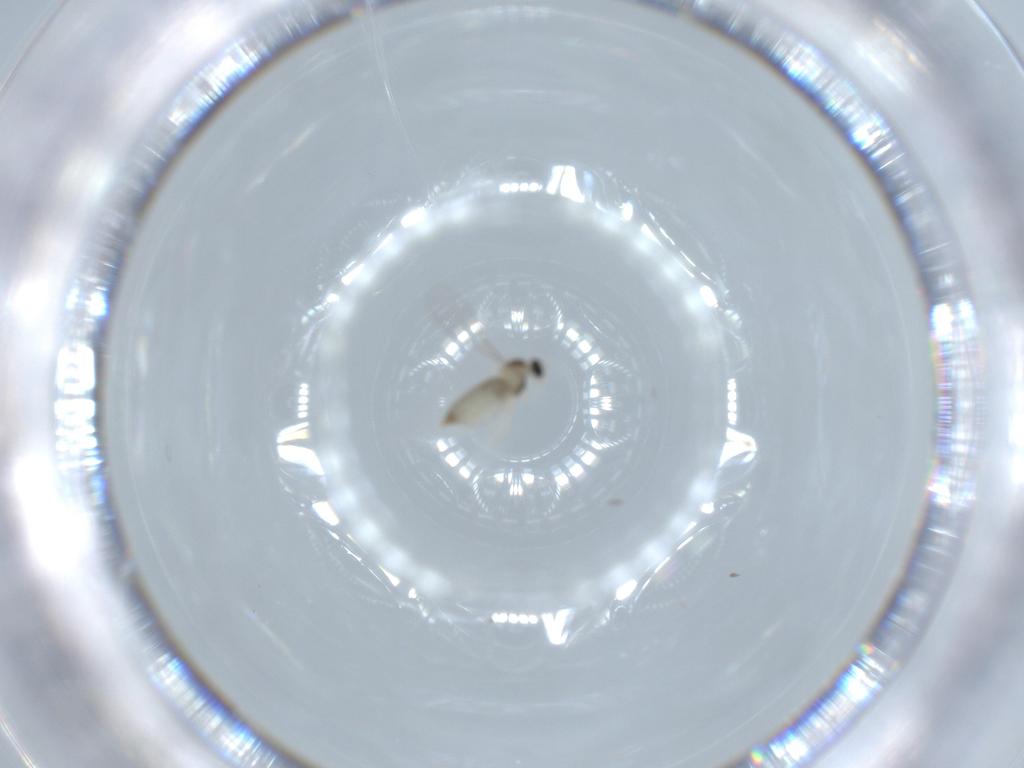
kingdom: Animalia
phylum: Arthropoda
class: Insecta
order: Diptera
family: Cecidomyiidae
